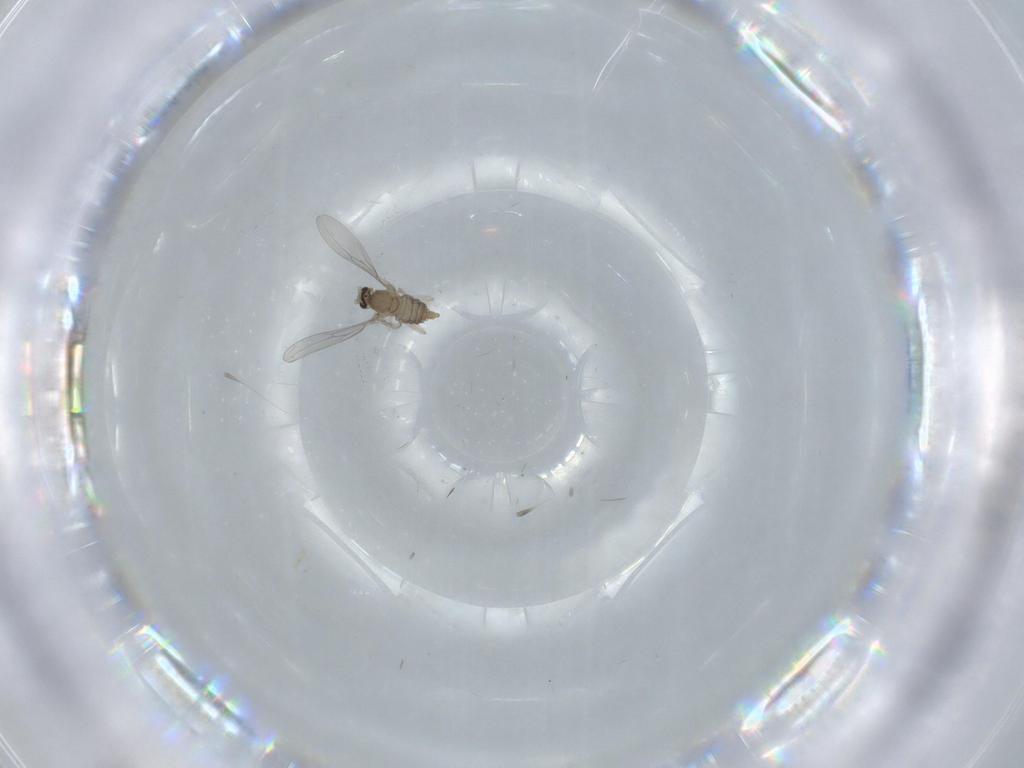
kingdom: Animalia
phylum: Arthropoda
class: Insecta
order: Diptera
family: Cecidomyiidae
